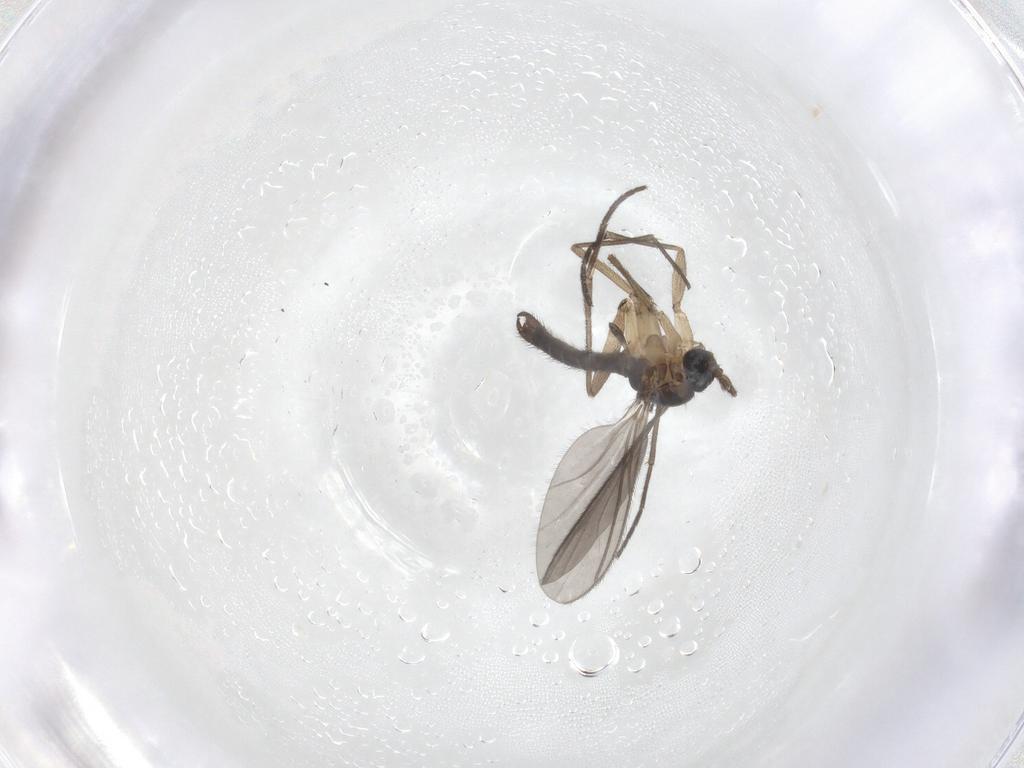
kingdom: Animalia
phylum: Arthropoda
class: Insecta
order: Diptera
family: Sciaridae
